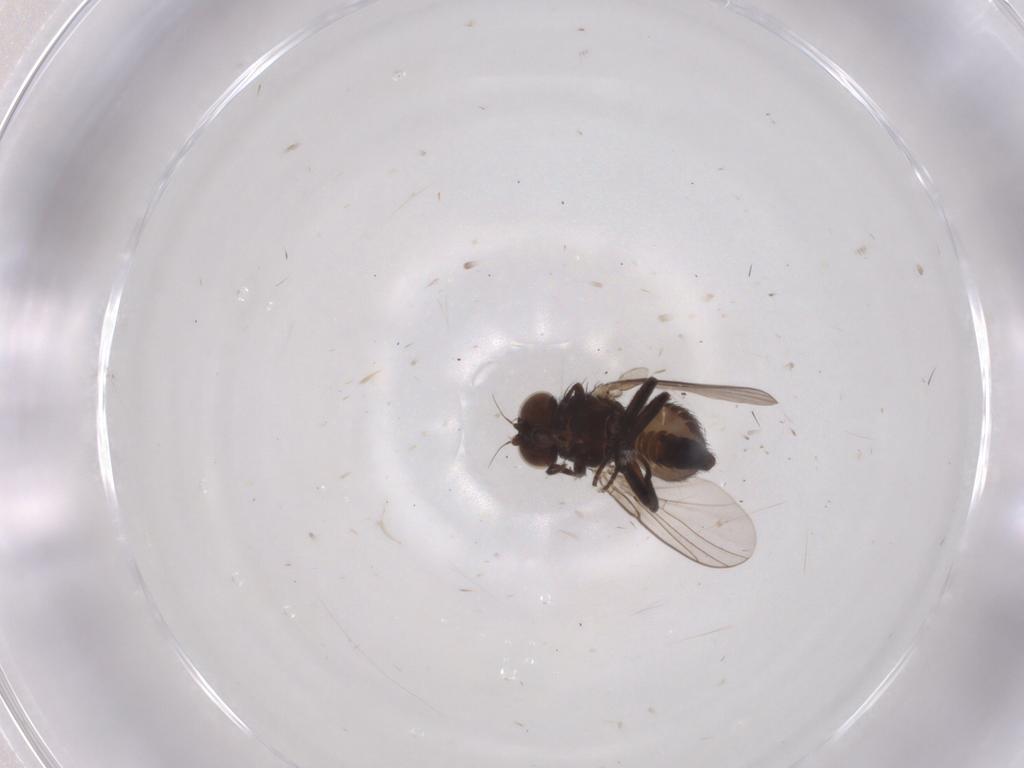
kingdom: Animalia
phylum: Arthropoda
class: Insecta
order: Diptera
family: Agromyzidae
